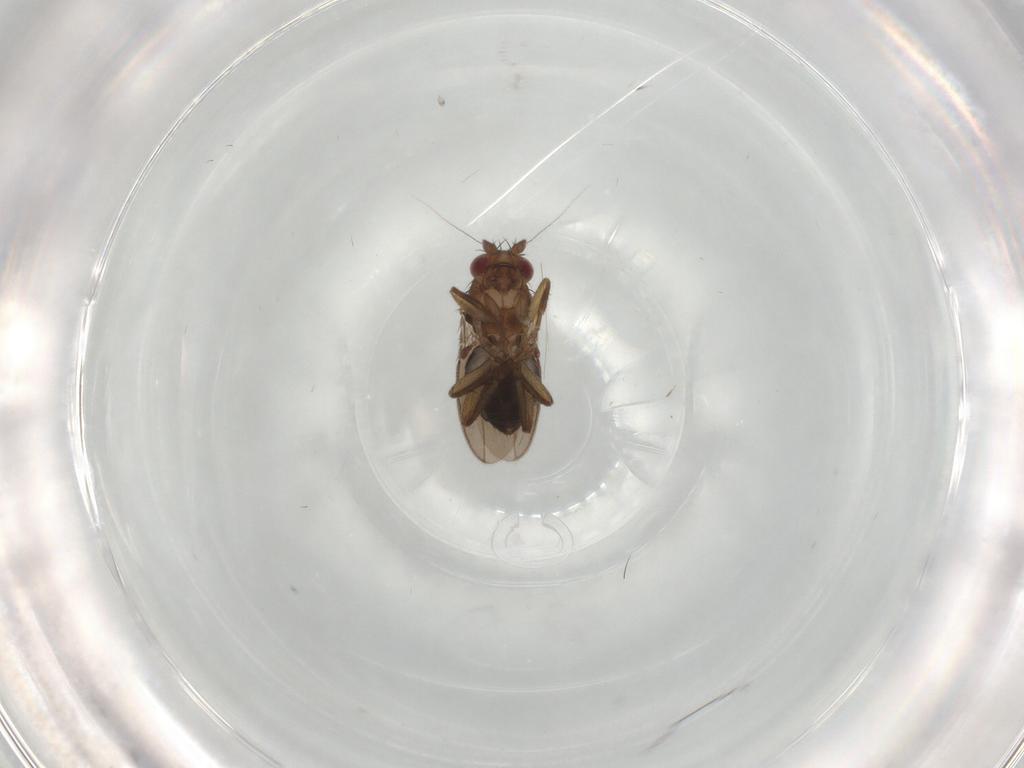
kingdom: Animalia
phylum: Arthropoda
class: Insecta
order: Diptera
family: Sphaeroceridae
